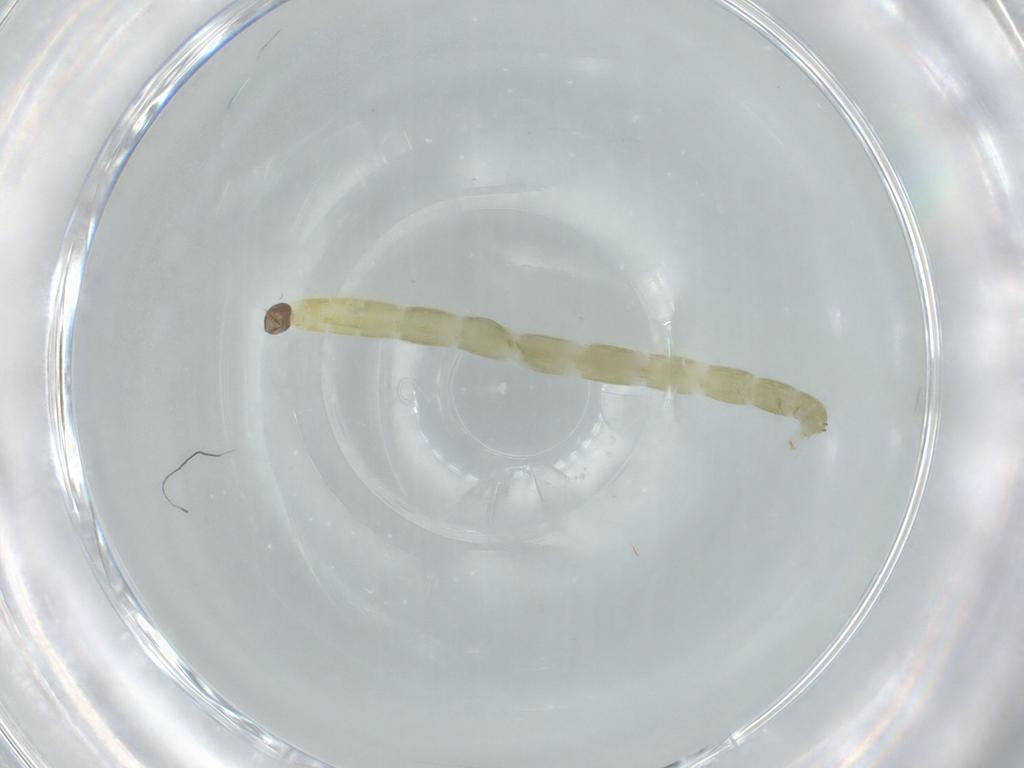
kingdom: Animalia
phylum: Arthropoda
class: Insecta
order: Diptera
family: Chironomidae
